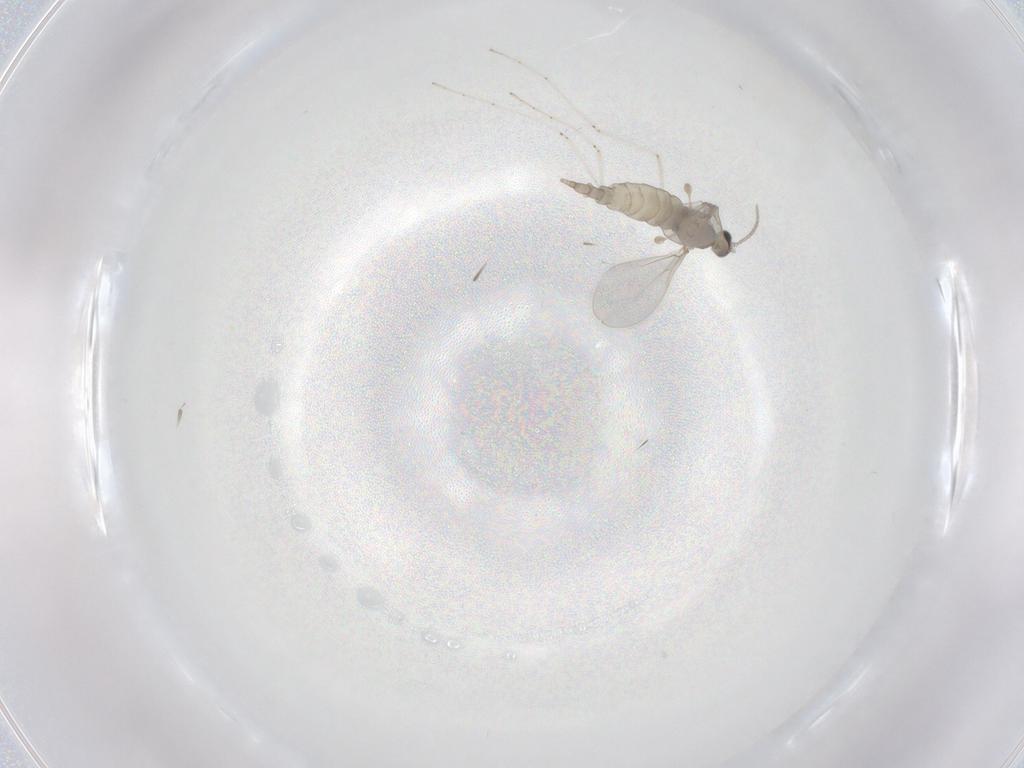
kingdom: Animalia
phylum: Arthropoda
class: Insecta
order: Diptera
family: Cecidomyiidae
